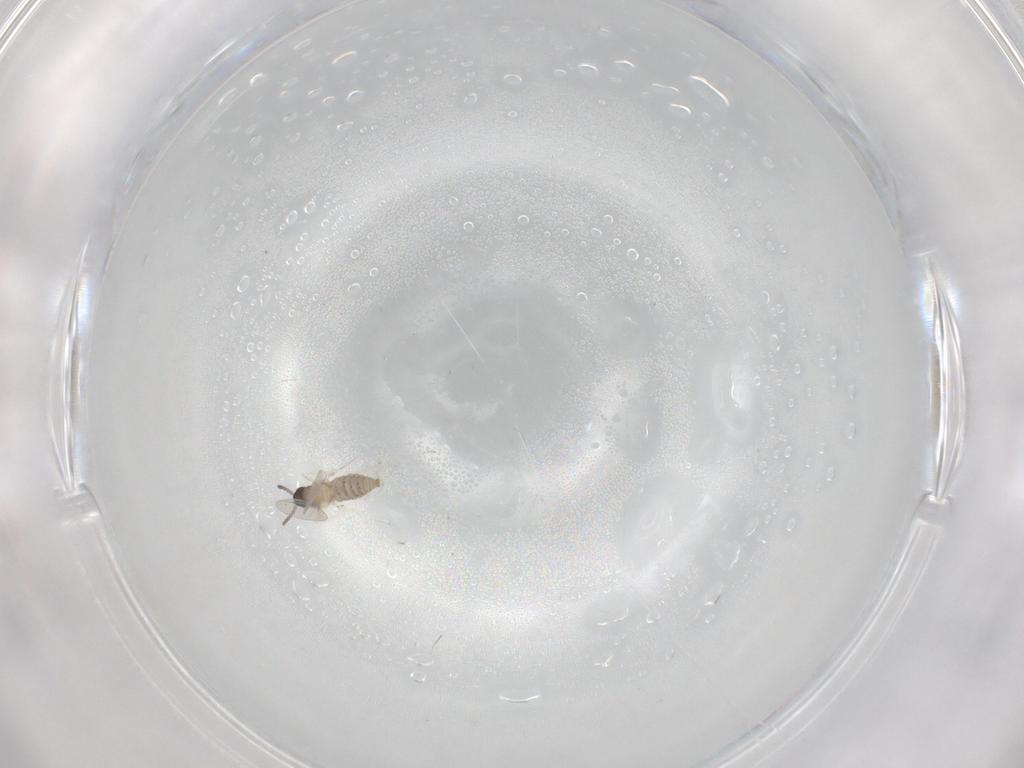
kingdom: Animalia
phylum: Arthropoda
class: Insecta
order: Diptera
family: Cecidomyiidae
